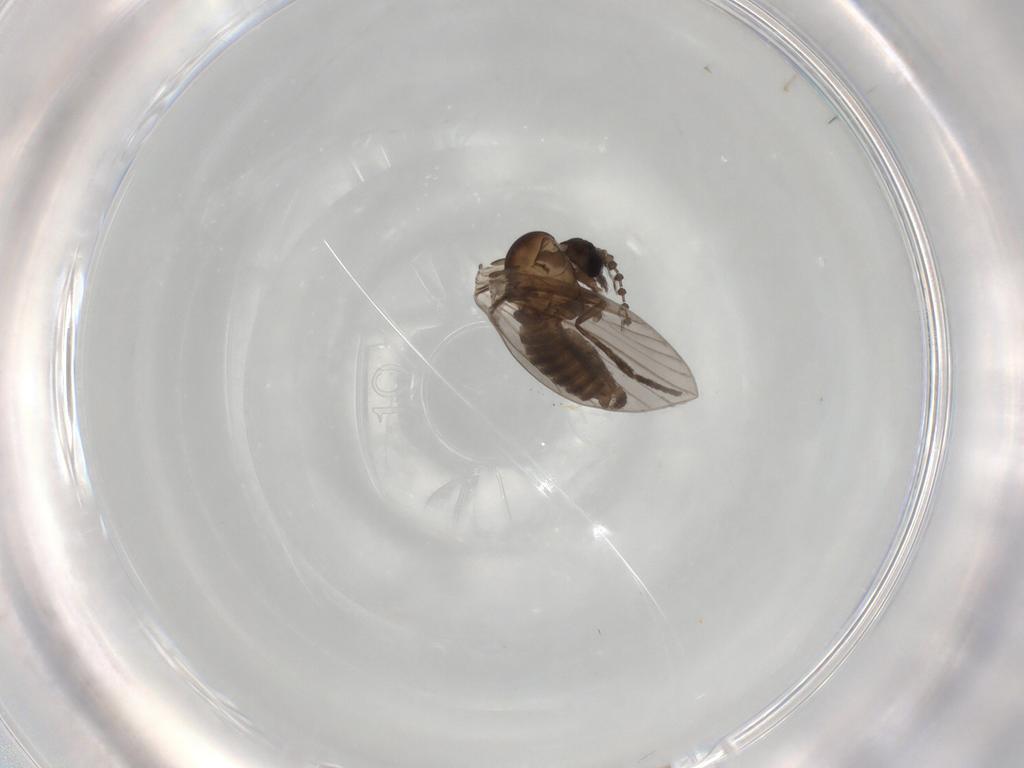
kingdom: Animalia
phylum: Arthropoda
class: Insecta
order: Diptera
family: Psychodidae
